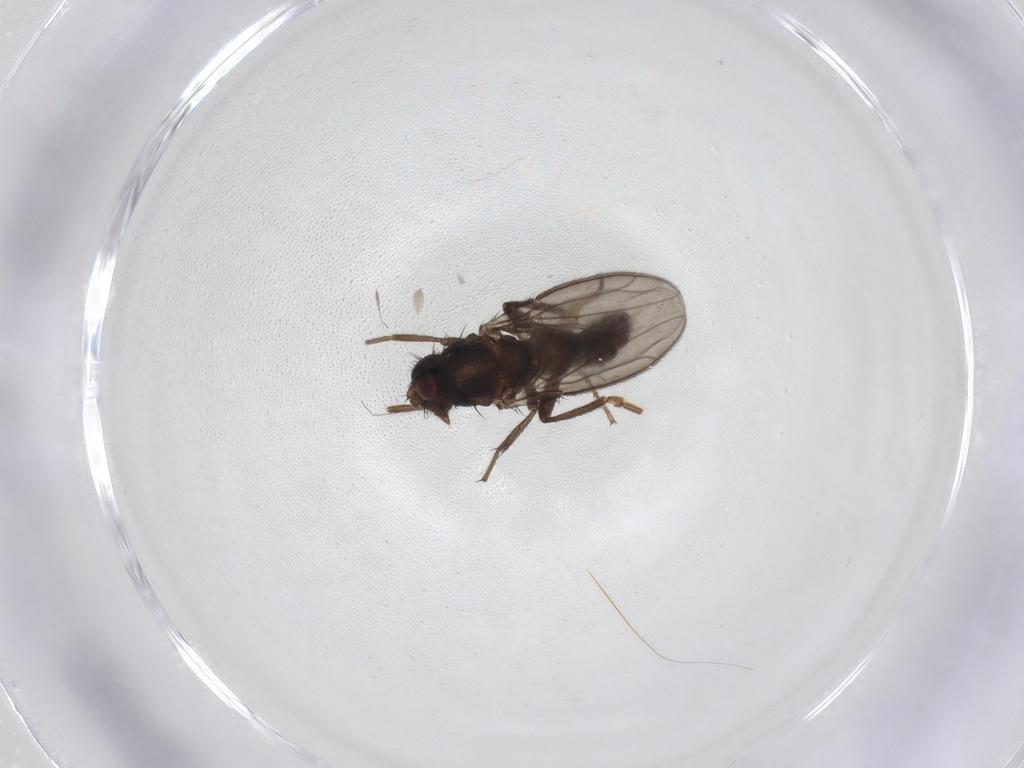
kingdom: Animalia
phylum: Arthropoda
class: Insecta
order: Diptera
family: Sphaeroceridae
